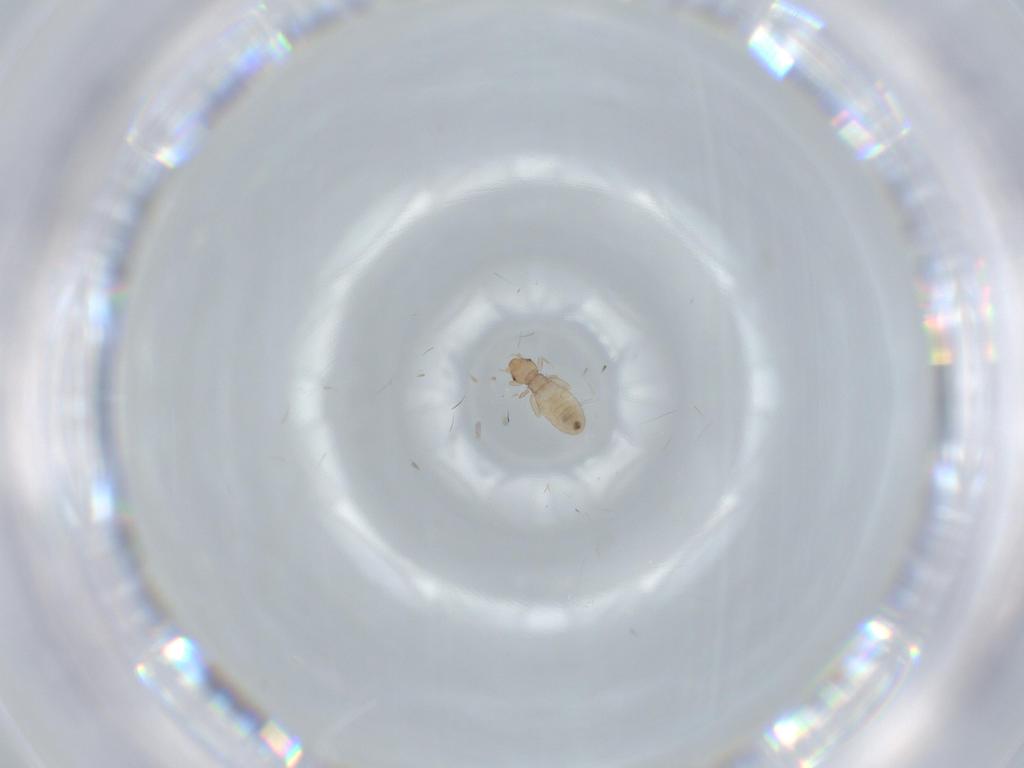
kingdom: Animalia
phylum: Arthropoda
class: Insecta
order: Psocodea
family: Liposcelididae
